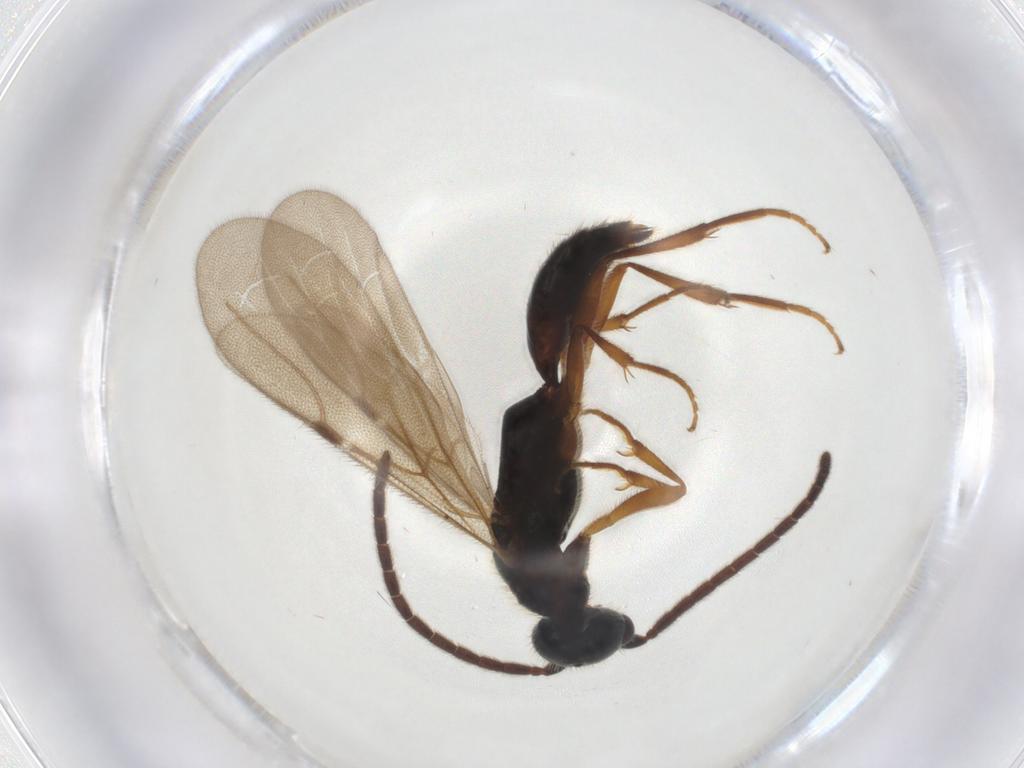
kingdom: Animalia
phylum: Arthropoda
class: Insecta
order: Hymenoptera
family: Bethylidae
